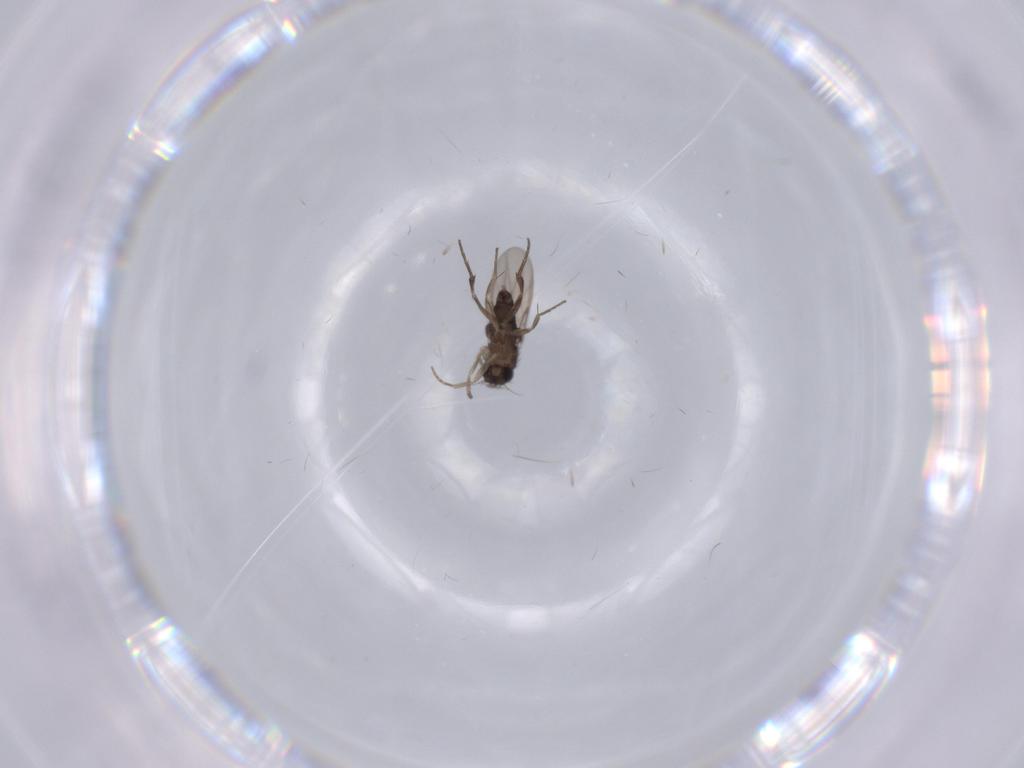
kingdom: Animalia
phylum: Arthropoda
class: Insecta
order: Diptera
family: Phoridae
